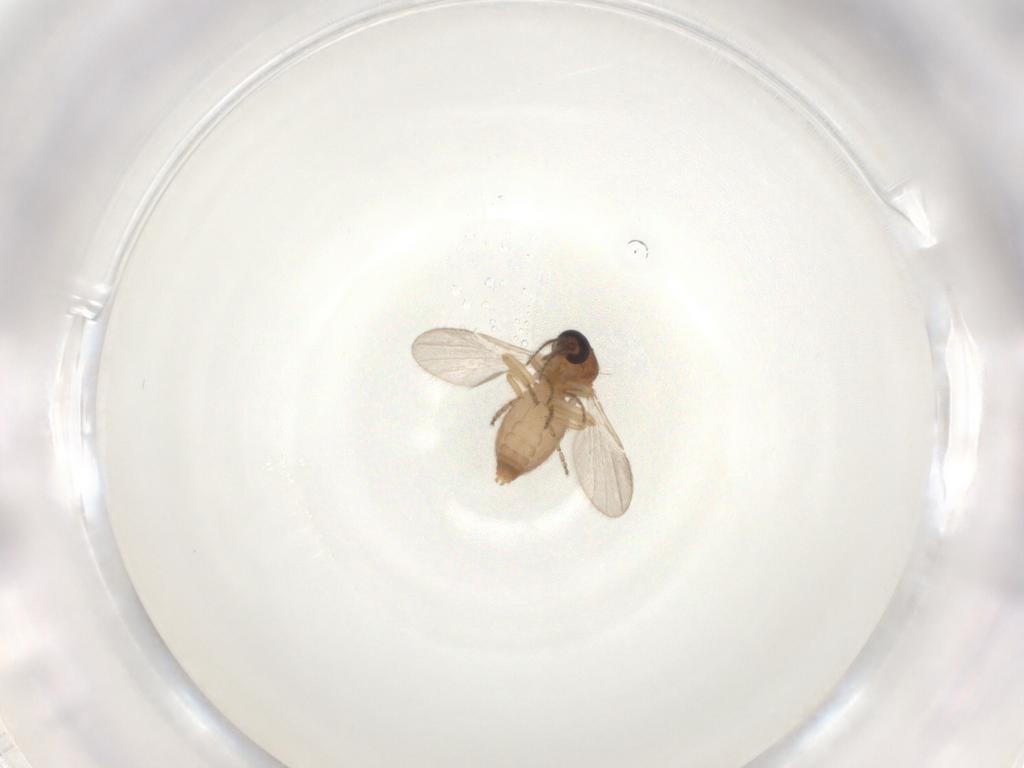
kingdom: Animalia
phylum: Arthropoda
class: Insecta
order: Diptera
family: Ceratopogonidae
